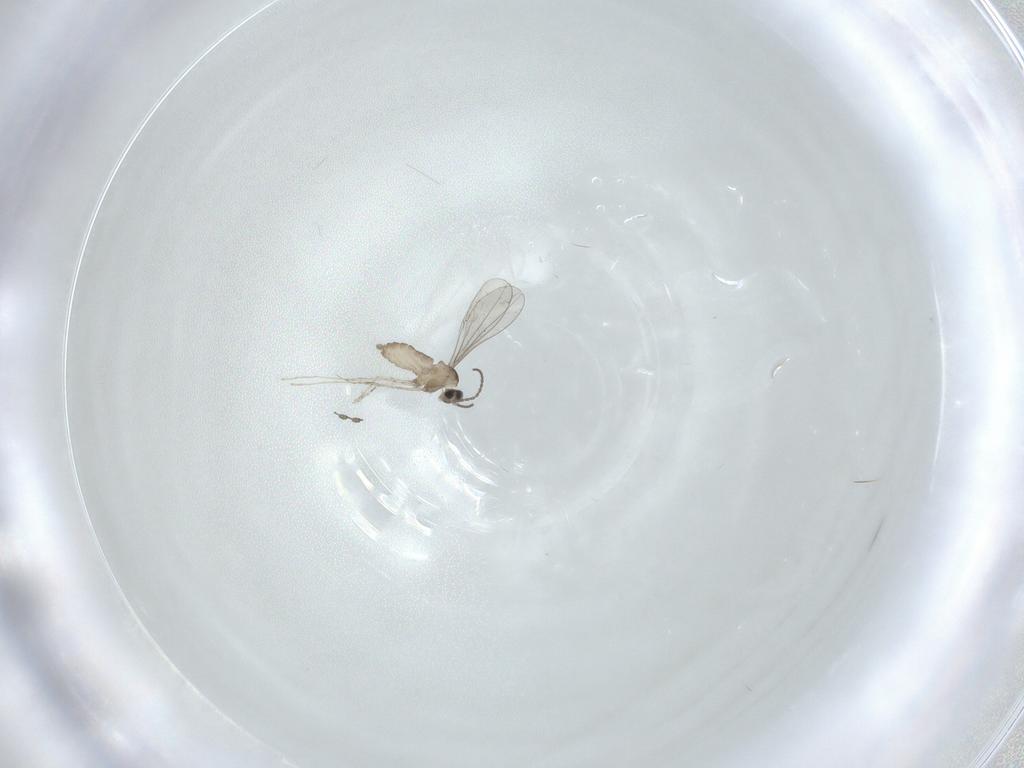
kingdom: Animalia
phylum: Arthropoda
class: Insecta
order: Diptera
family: Cecidomyiidae
